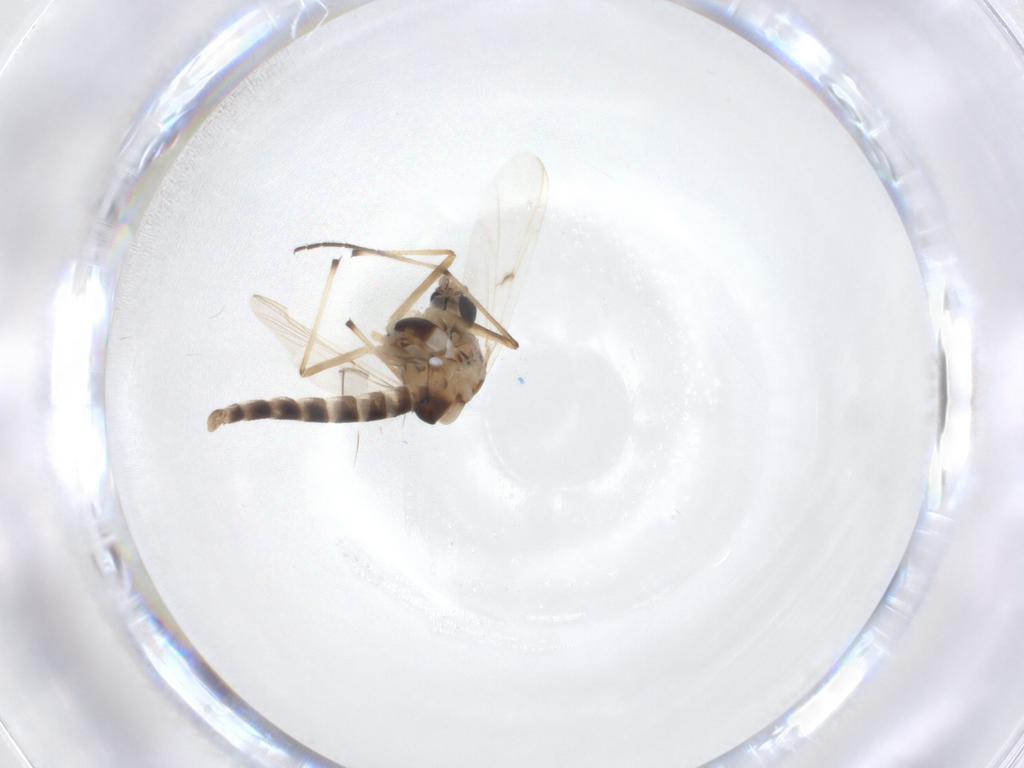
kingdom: Animalia
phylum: Arthropoda
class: Insecta
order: Diptera
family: Chironomidae
